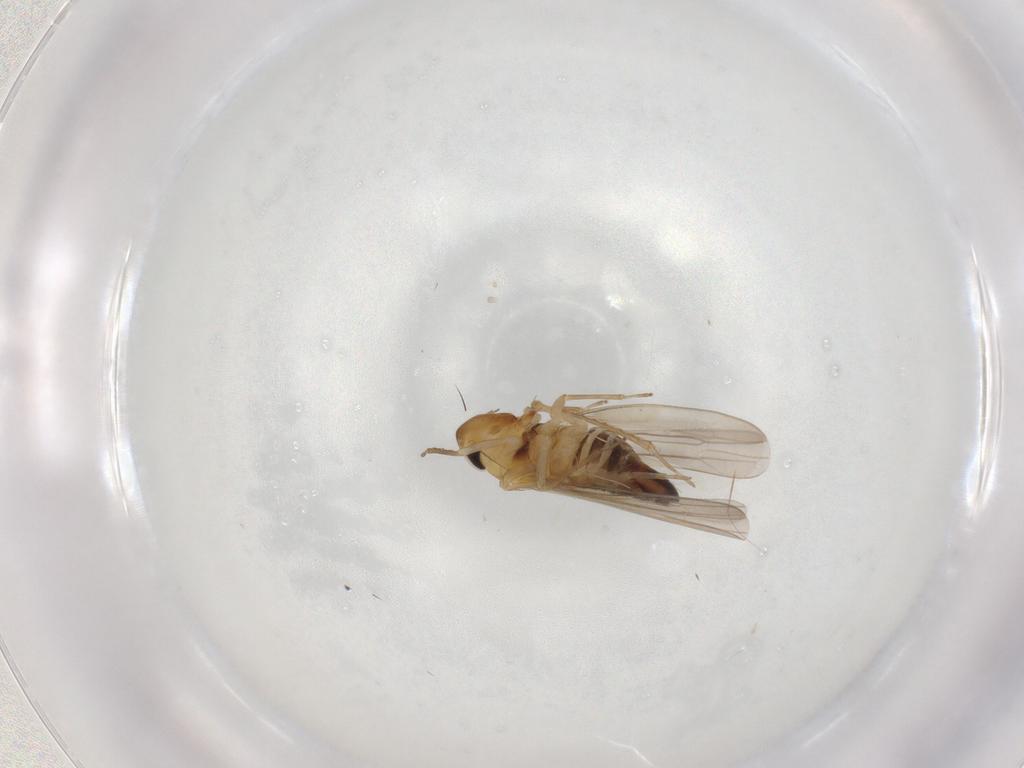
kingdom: Animalia
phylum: Arthropoda
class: Insecta
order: Hemiptera
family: Cicadellidae
